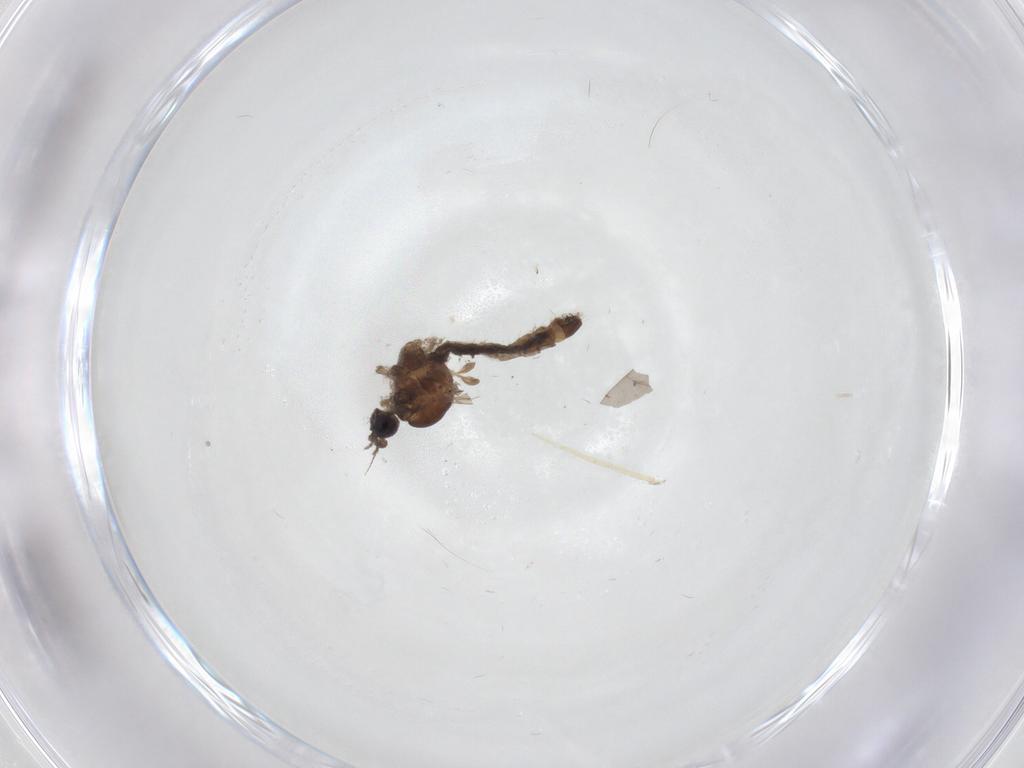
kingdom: Animalia
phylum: Arthropoda
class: Insecta
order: Diptera
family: Limoniidae
